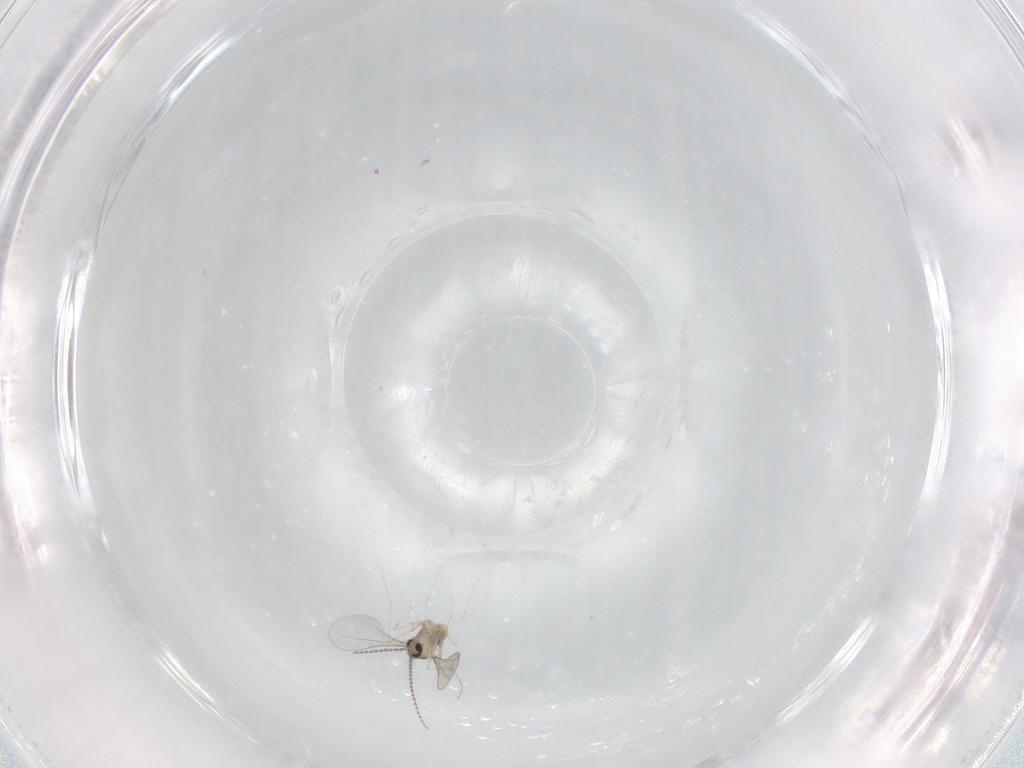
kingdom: Animalia
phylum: Arthropoda
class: Insecta
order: Diptera
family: Cecidomyiidae
